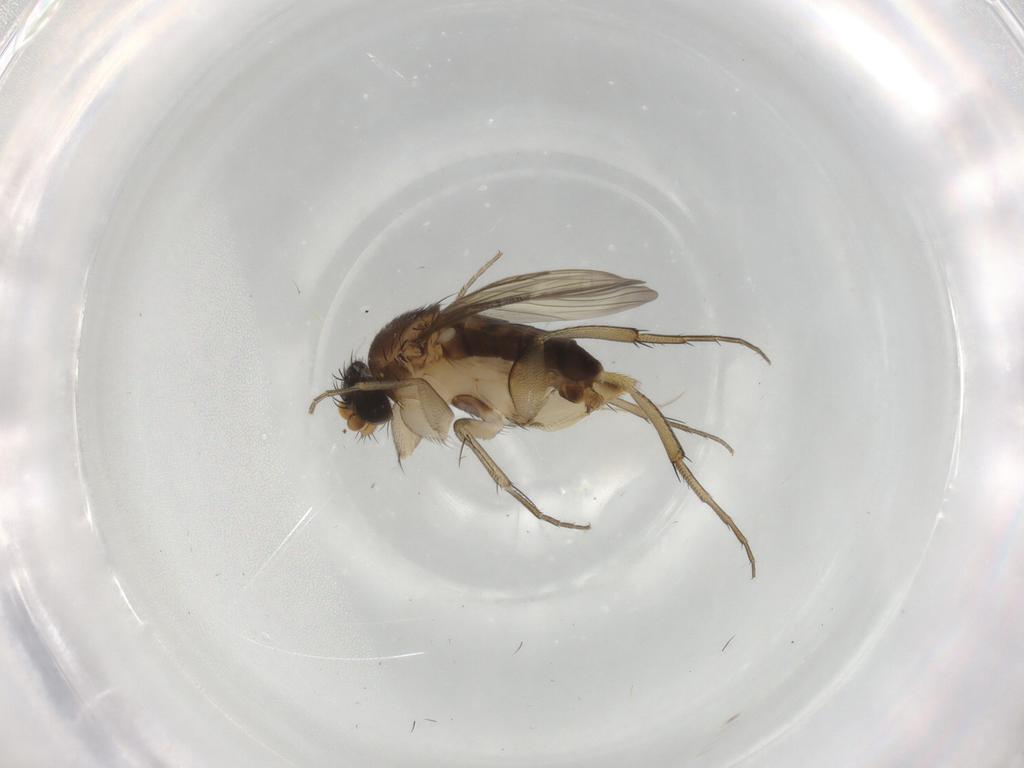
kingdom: Animalia
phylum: Arthropoda
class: Insecta
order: Diptera
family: Phoridae
